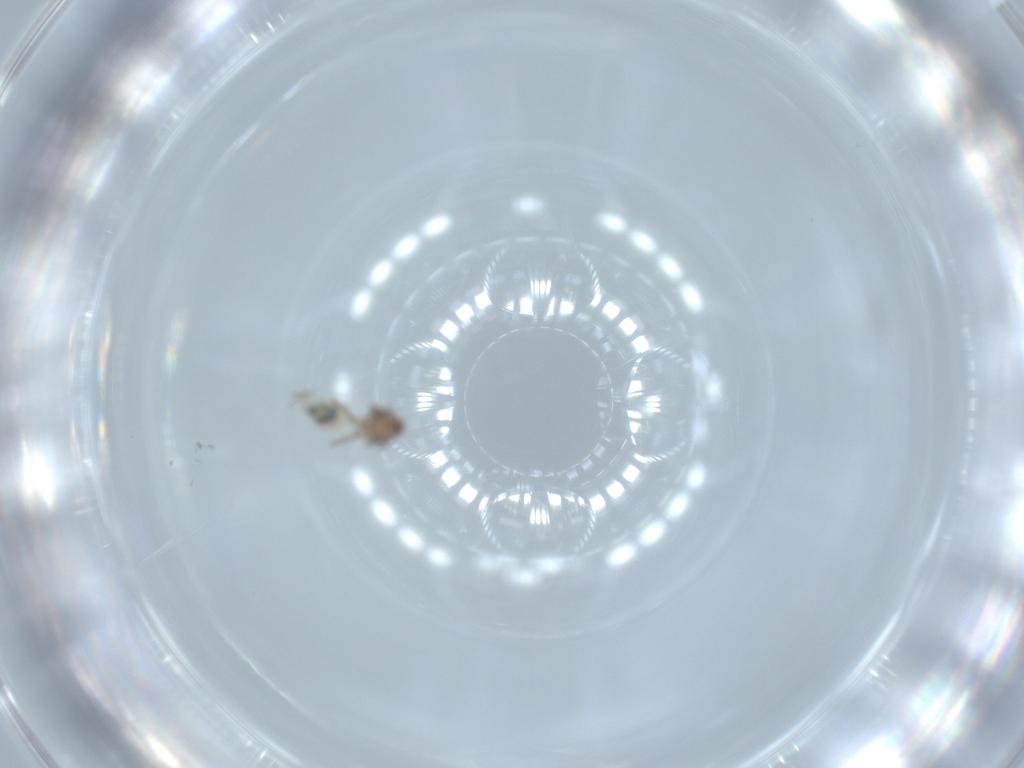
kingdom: Animalia
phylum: Arthropoda
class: Insecta
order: Psocodea
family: Lepidopsocidae
